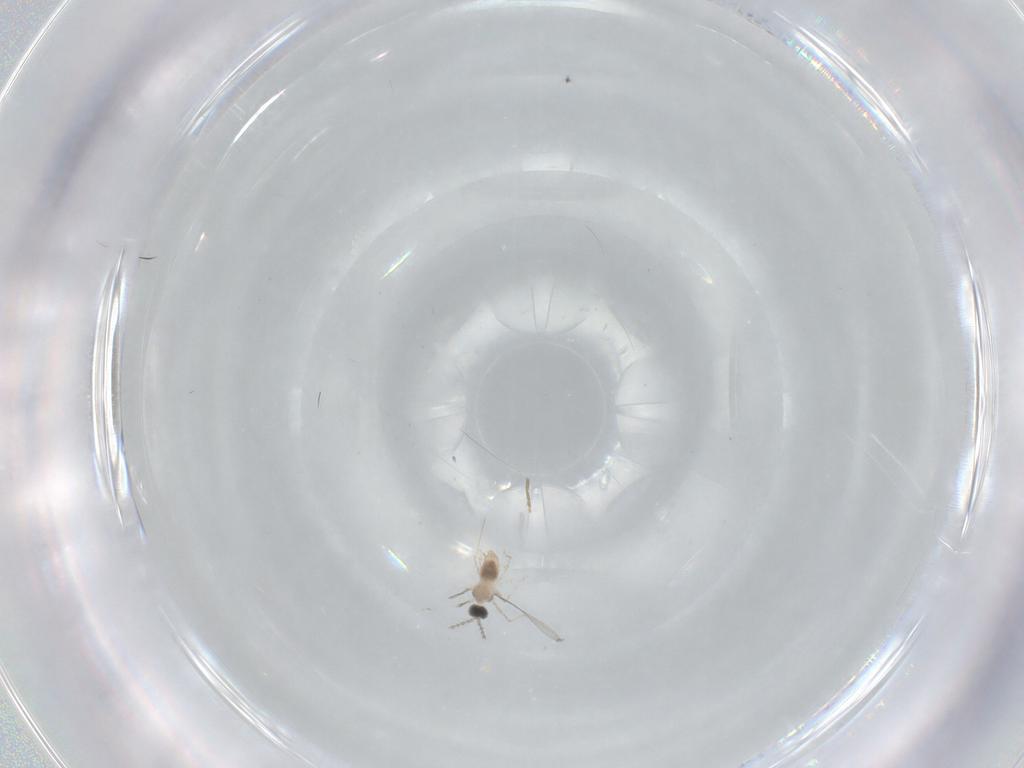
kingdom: Animalia
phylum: Arthropoda
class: Insecta
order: Diptera
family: Cecidomyiidae
